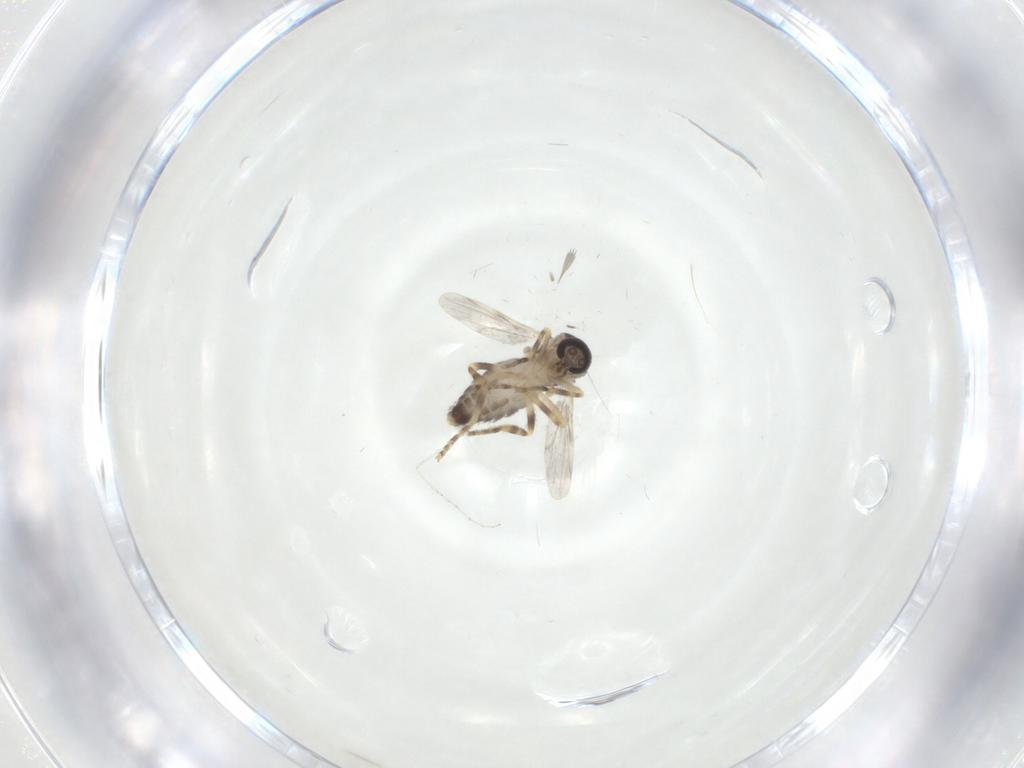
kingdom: Animalia
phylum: Arthropoda
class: Insecta
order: Diptera
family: Ceratopogonidae
